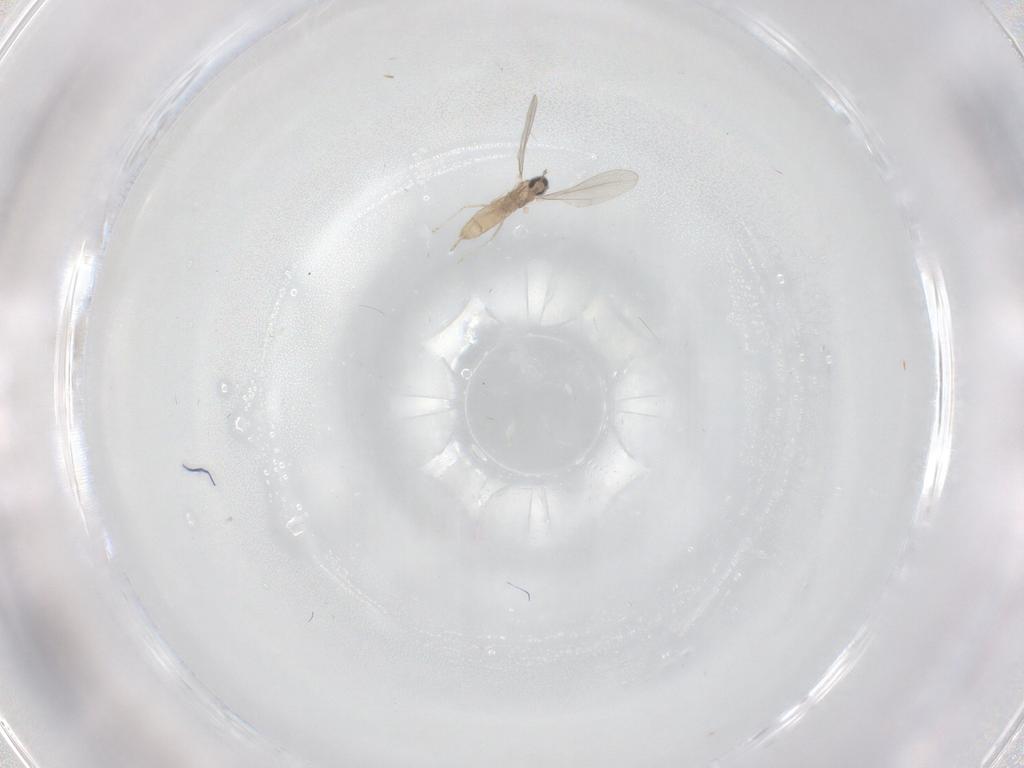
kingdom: Animalia
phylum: Arthropoda
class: Insecta
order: Diptera
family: Cecidomyiidae
